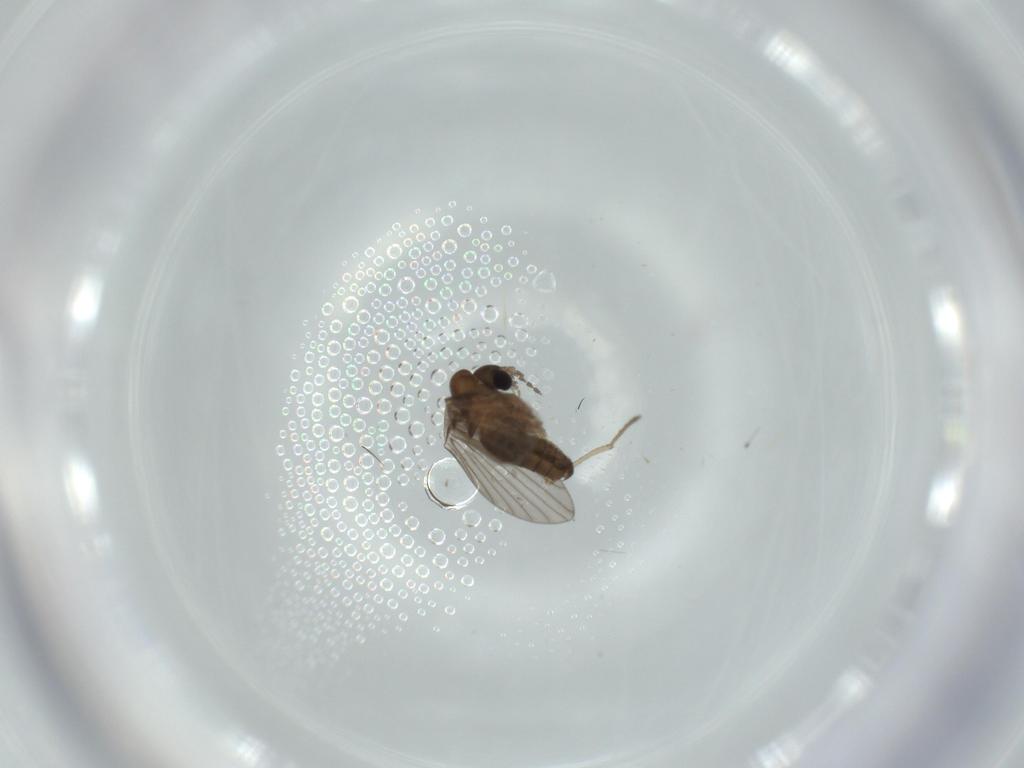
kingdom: Animalia
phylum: Arthropoda
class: Insecta
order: Diptera
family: Psychodidae
